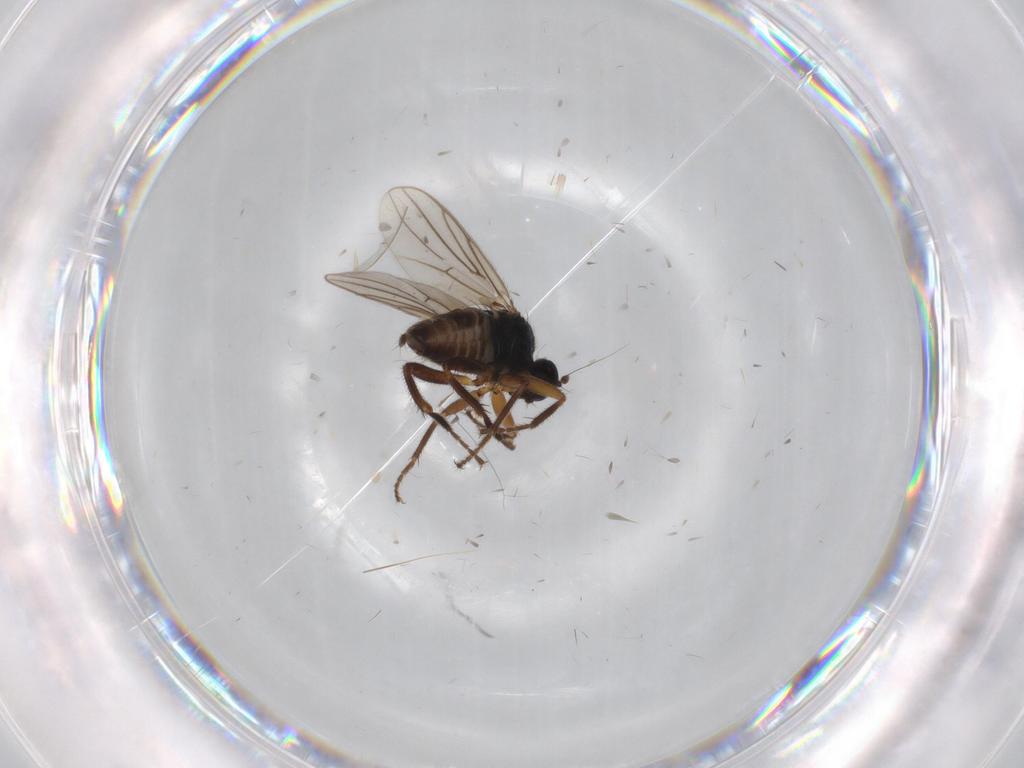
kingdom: Animalia
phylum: Arthropoda
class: Insecta
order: Diptera
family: Hybotidae
